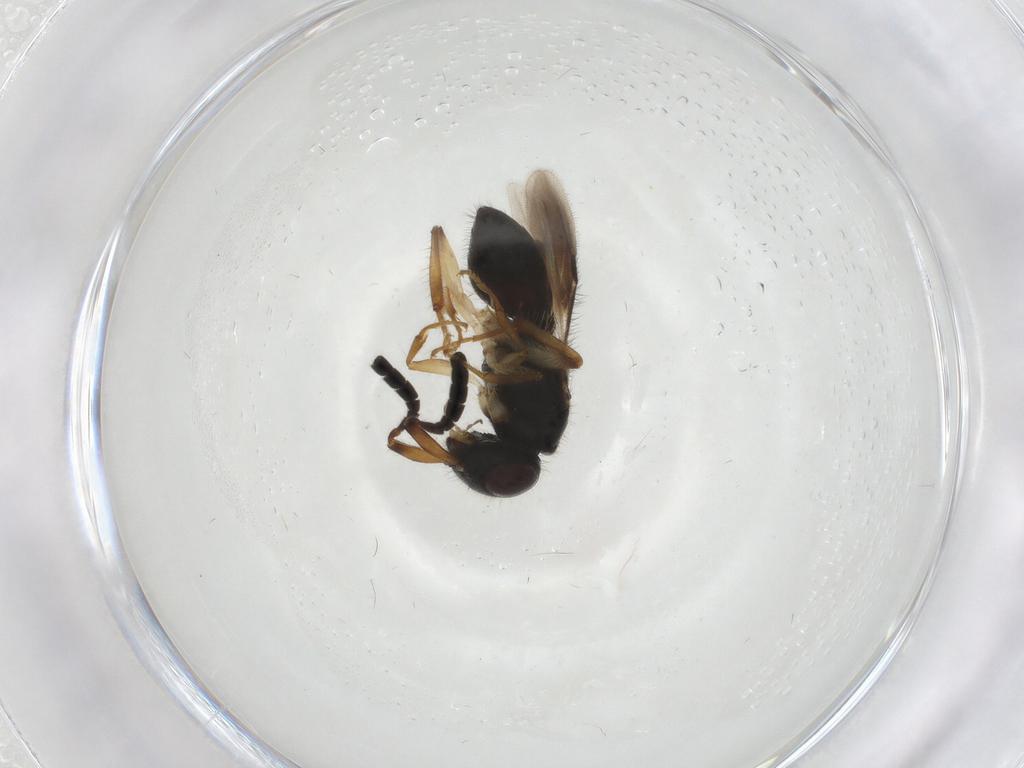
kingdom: Animalia
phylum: Arthropoda
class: Insecta
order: Diptera
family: Chironomidae
